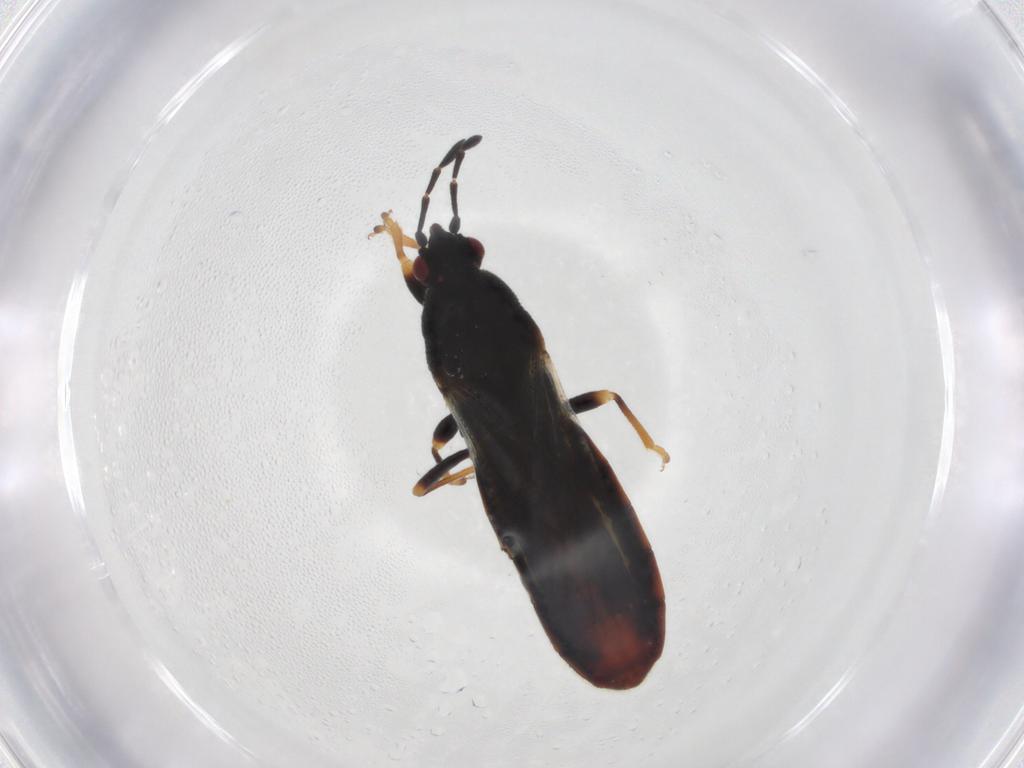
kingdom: Animalia
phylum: Arthropoda
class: Insecta
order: Hemiptera
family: Blissidae
